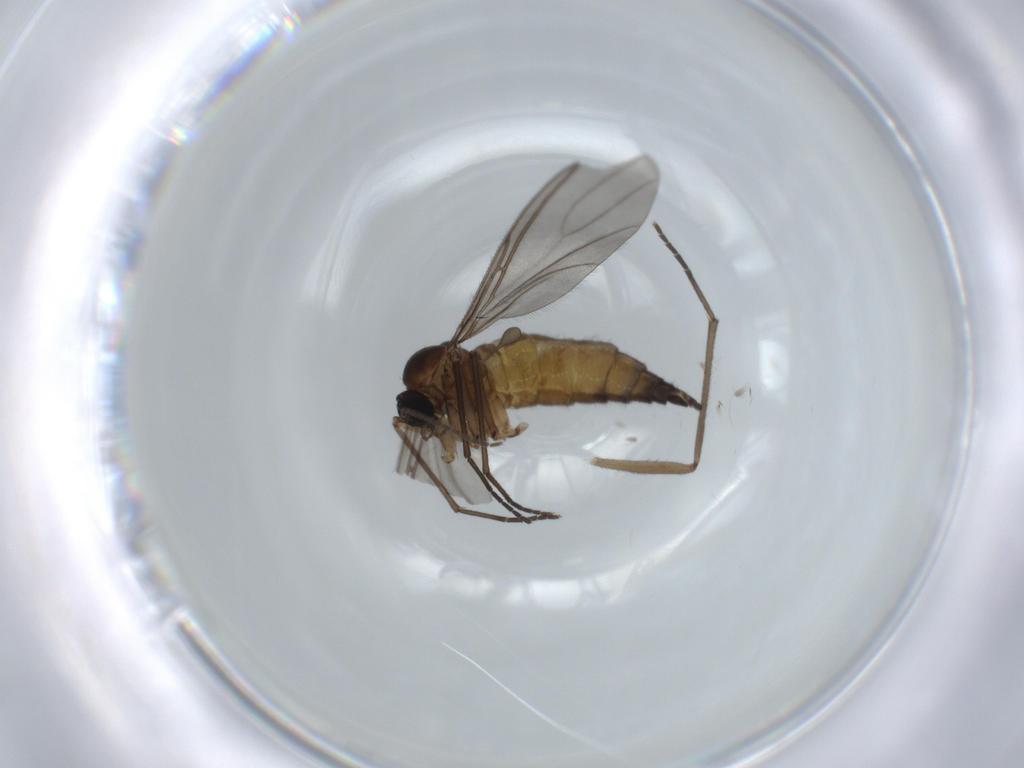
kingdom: Animalia
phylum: Arthropoda
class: Insecta
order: Diptera
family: Sciaridae
